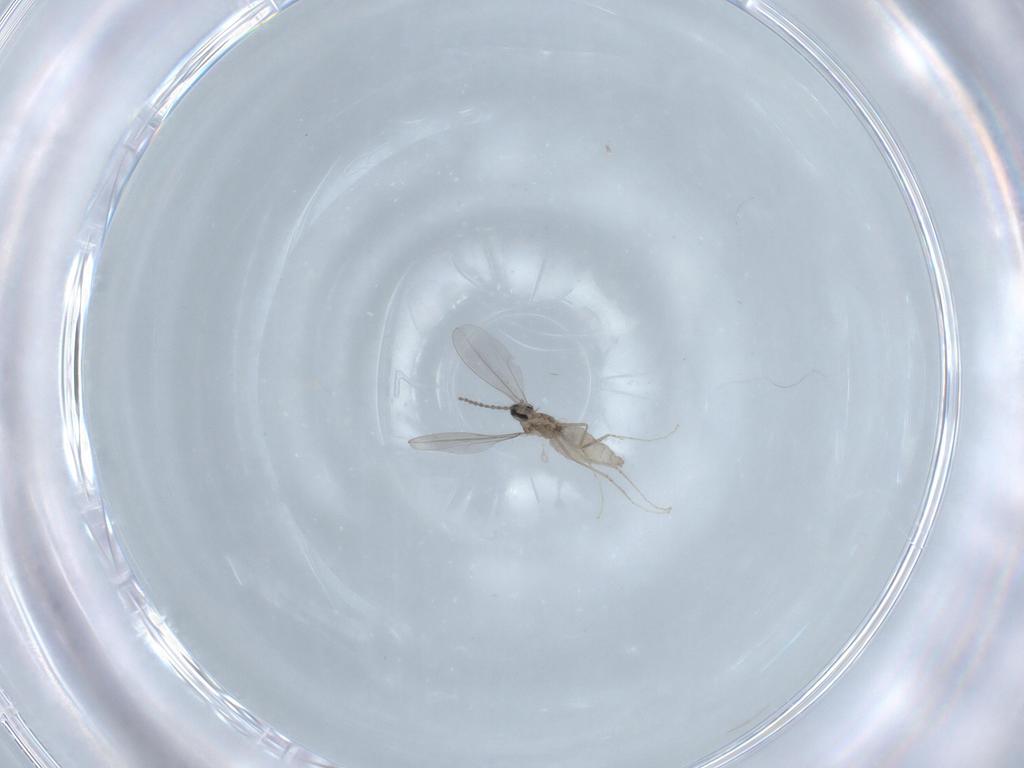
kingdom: Animalia
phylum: Arthropoda
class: Insecta
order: Diptera
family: Cecidomyiidae
